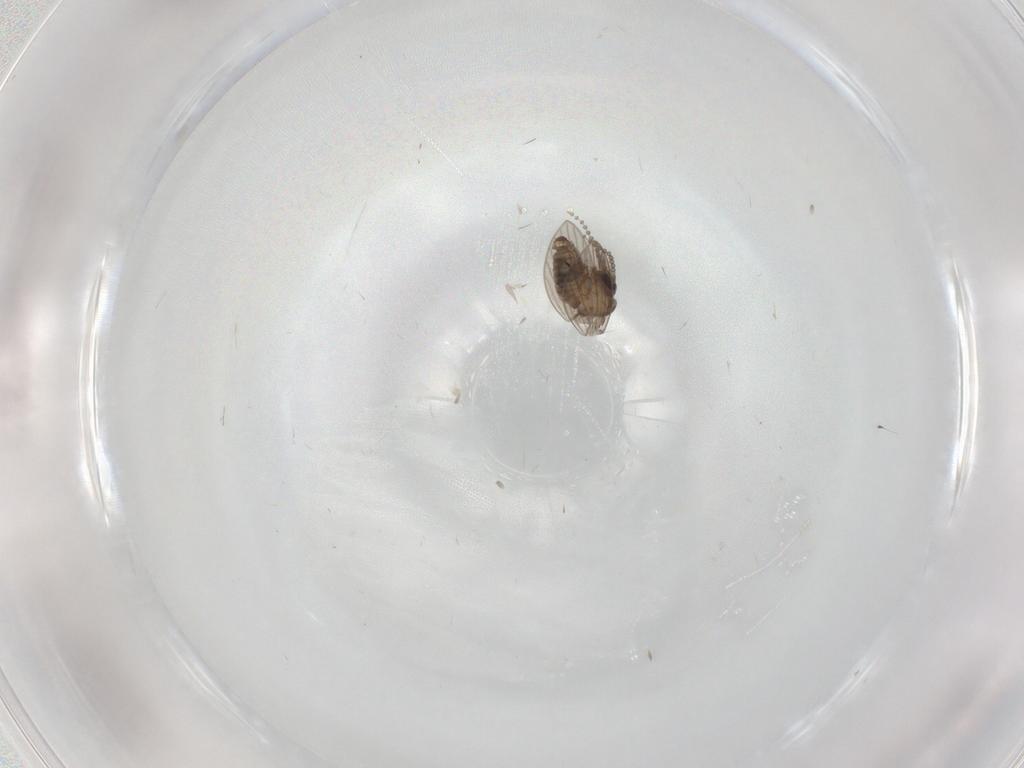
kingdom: Animalia
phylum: Arthropoda
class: Insecta
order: Diptera
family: Psychodidae
